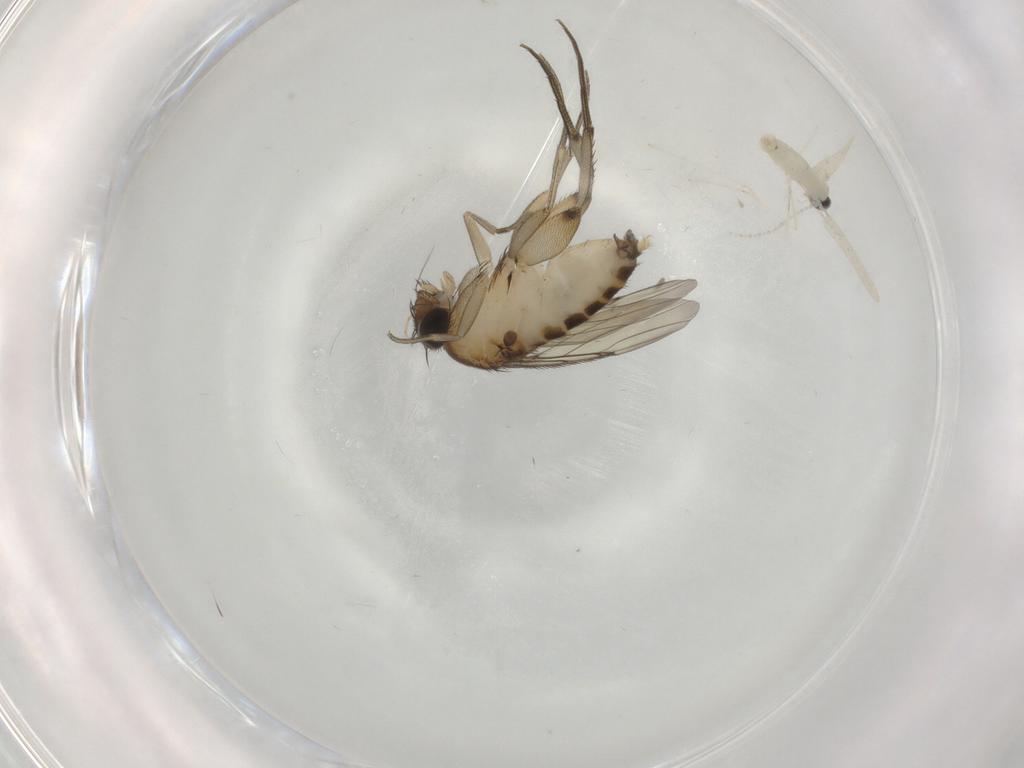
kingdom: Animalia
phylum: Arthropoda
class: Insecta
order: Diptera
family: Phoridae
